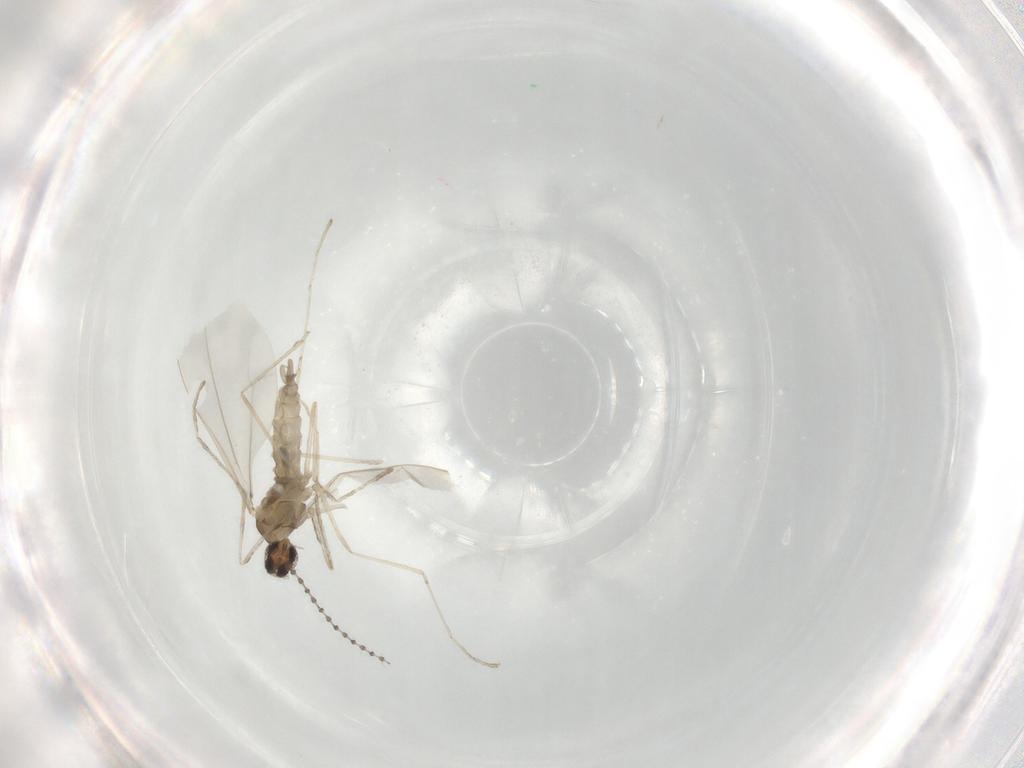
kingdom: Animalia
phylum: Arthropoda
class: Insecta
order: Diptera
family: Cecidomyiidae
